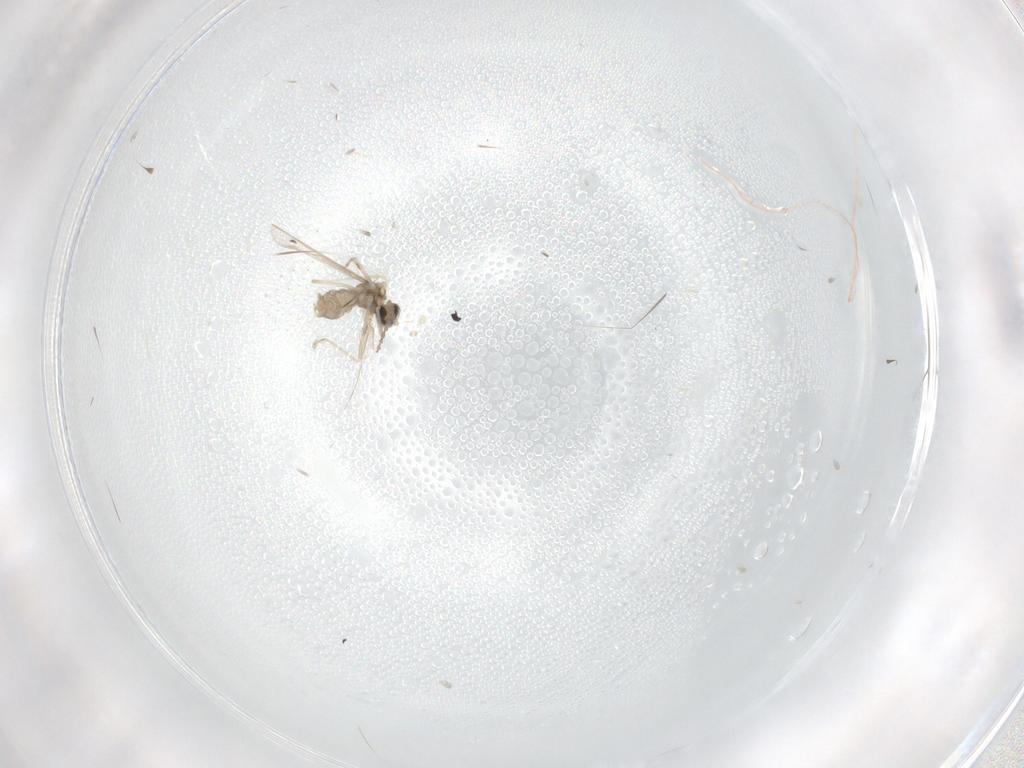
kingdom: Animalia
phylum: Arthropoda
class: Insecta
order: Diptera
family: Cecidomyiidae
